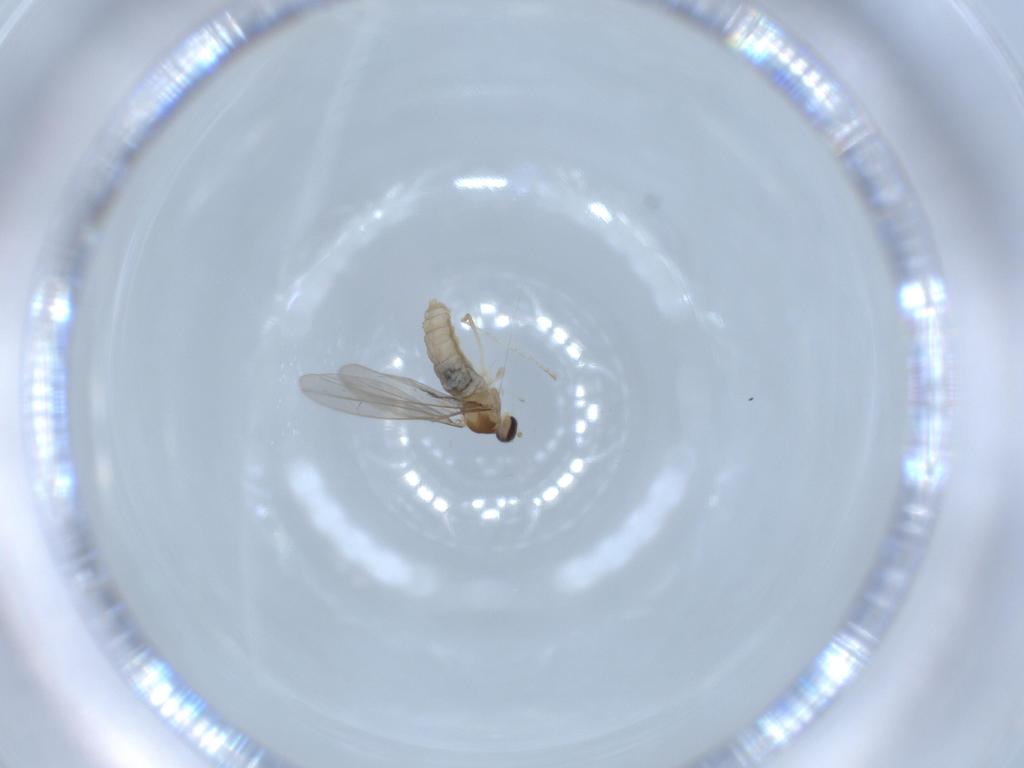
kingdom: Animalia
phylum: Arthropoda
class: Insecta
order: Diptera
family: Cecidomyiidae
